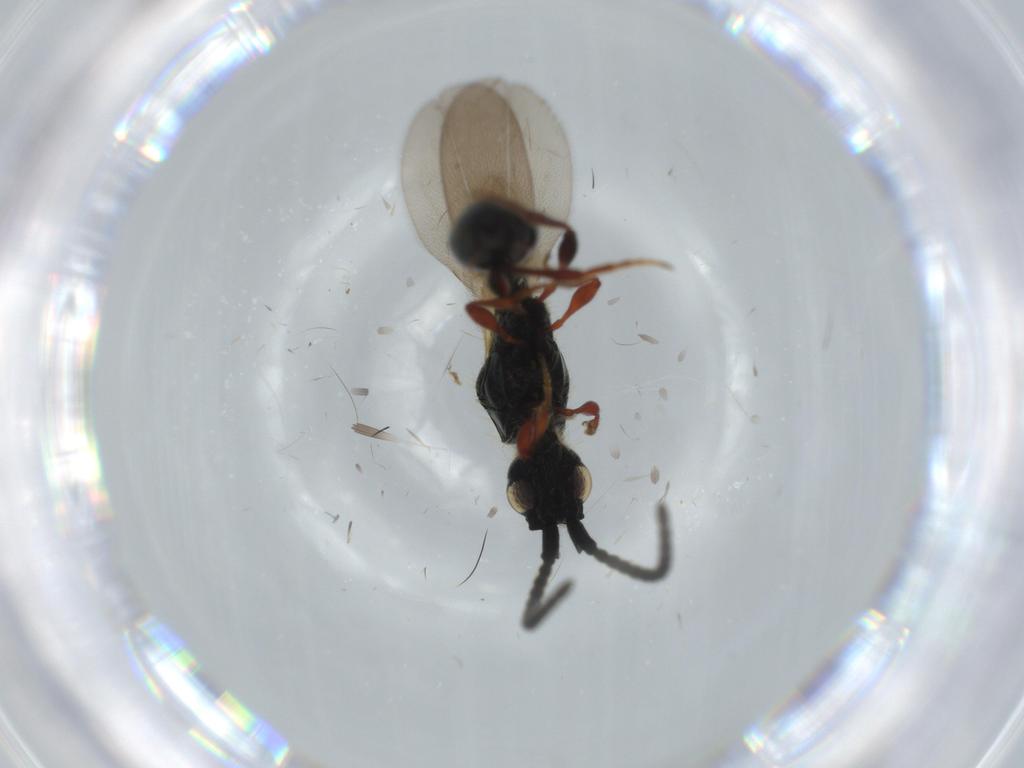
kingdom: Animalia
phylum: Arthropoda
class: Insecta
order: Hymenoptera
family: Diapriidae
